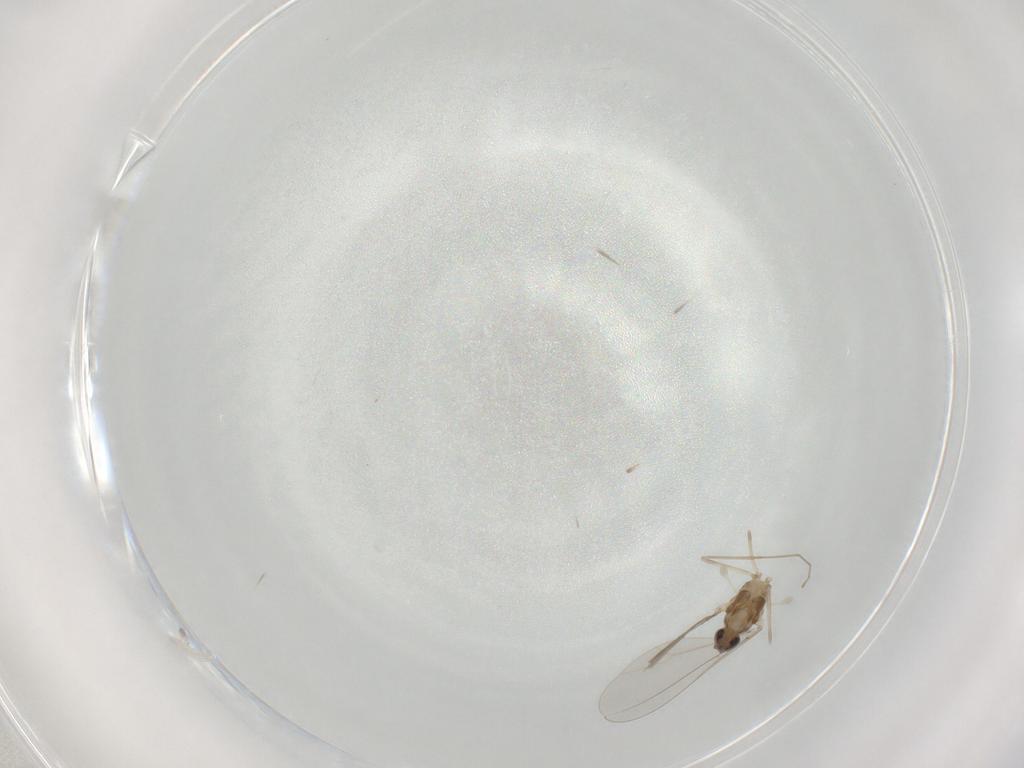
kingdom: Animalia
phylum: Arthropoda
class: Insecta
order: Diptera
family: Cecidomyiidae
